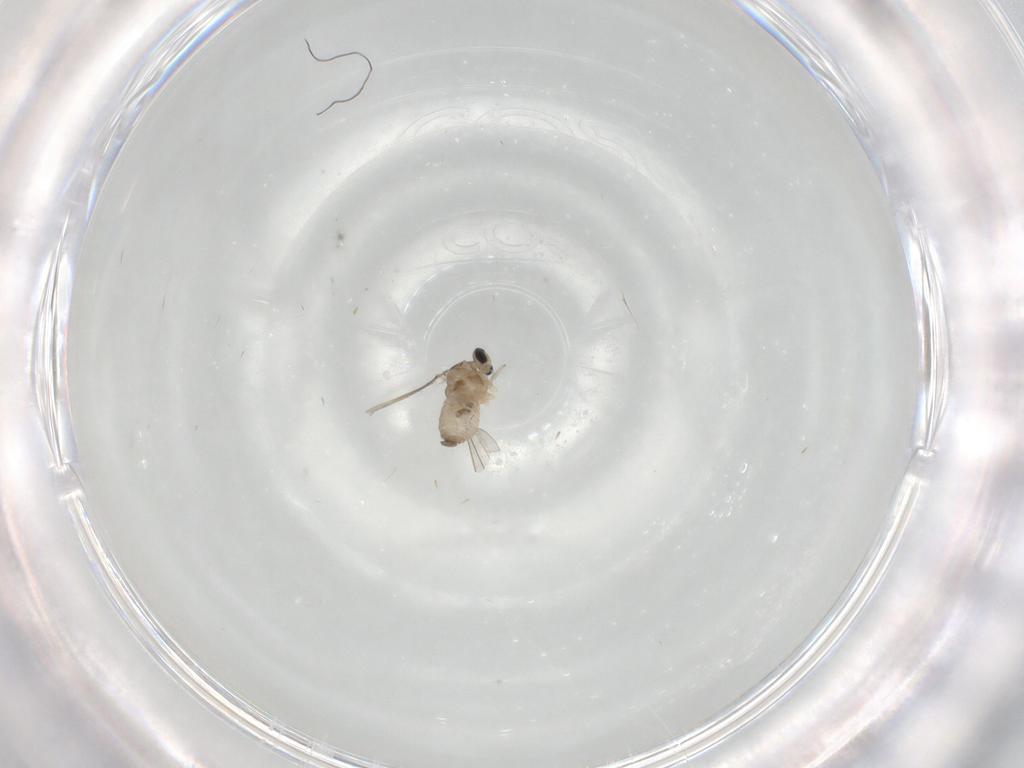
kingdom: Animalia
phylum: Arthropoda
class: Insecta
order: Diptera
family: Cecidomyiidae
